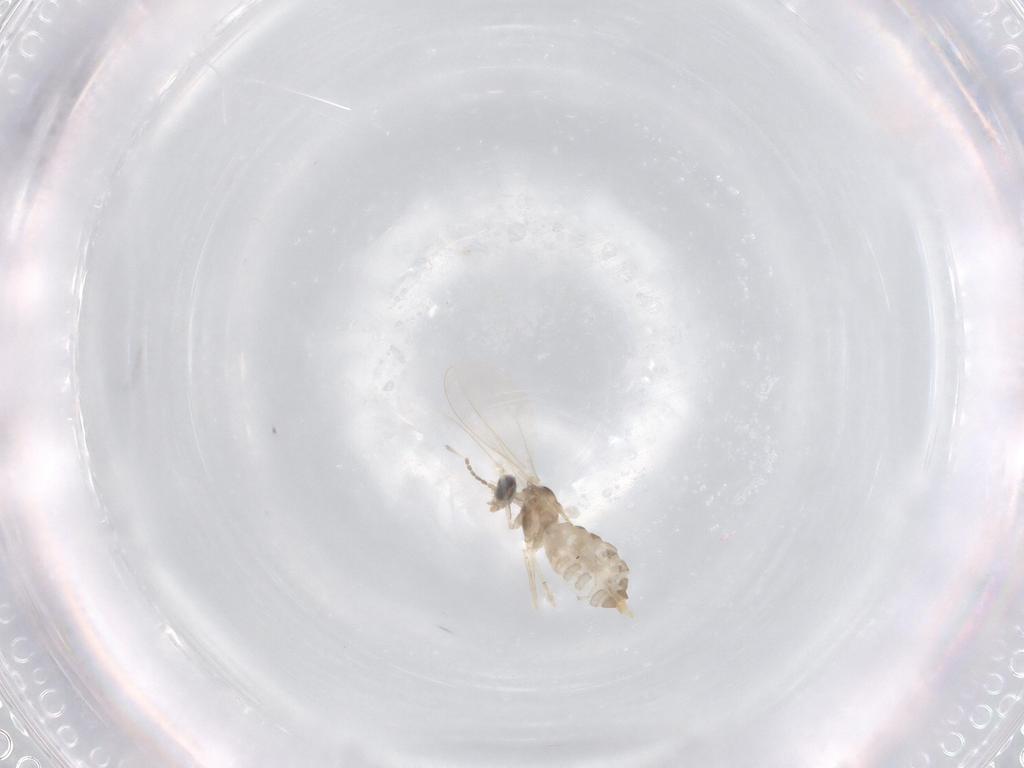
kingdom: Animalia
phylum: Arthropoda
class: Insecta
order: Diptera
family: Cecidomyiidae
